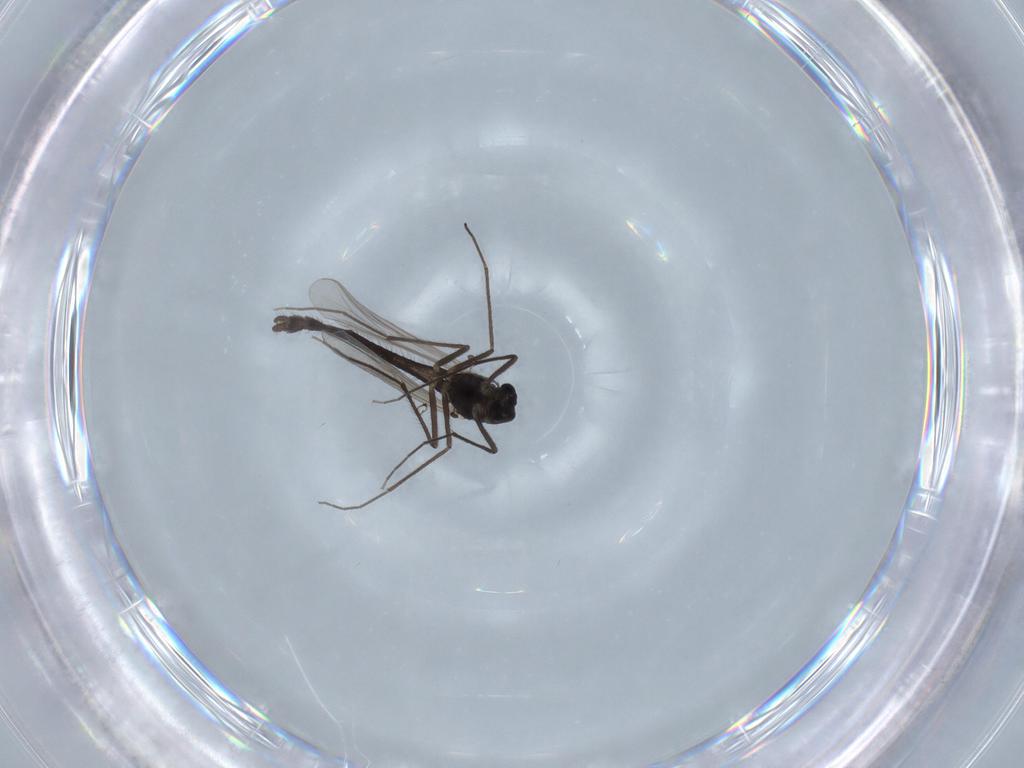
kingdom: Animalia
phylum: Arthropoda
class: Insecta
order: Diptera
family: Chironomidae
